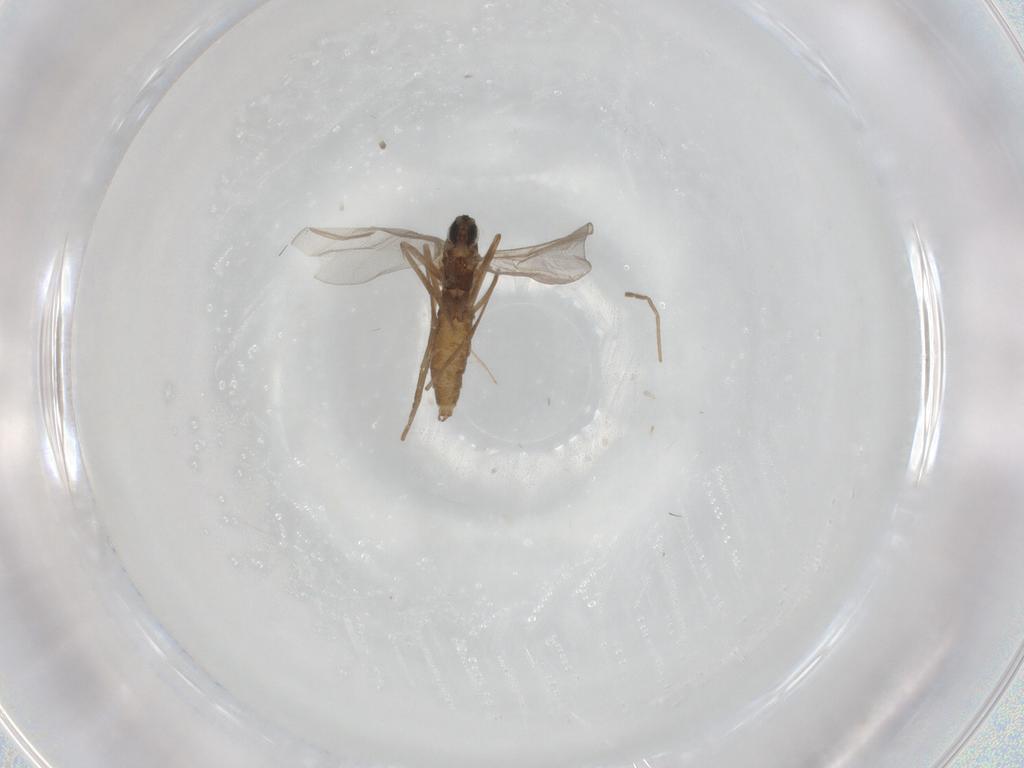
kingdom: Animalia
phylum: Arthropoda
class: Insecta
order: Diptera
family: Cecidomyiidae
